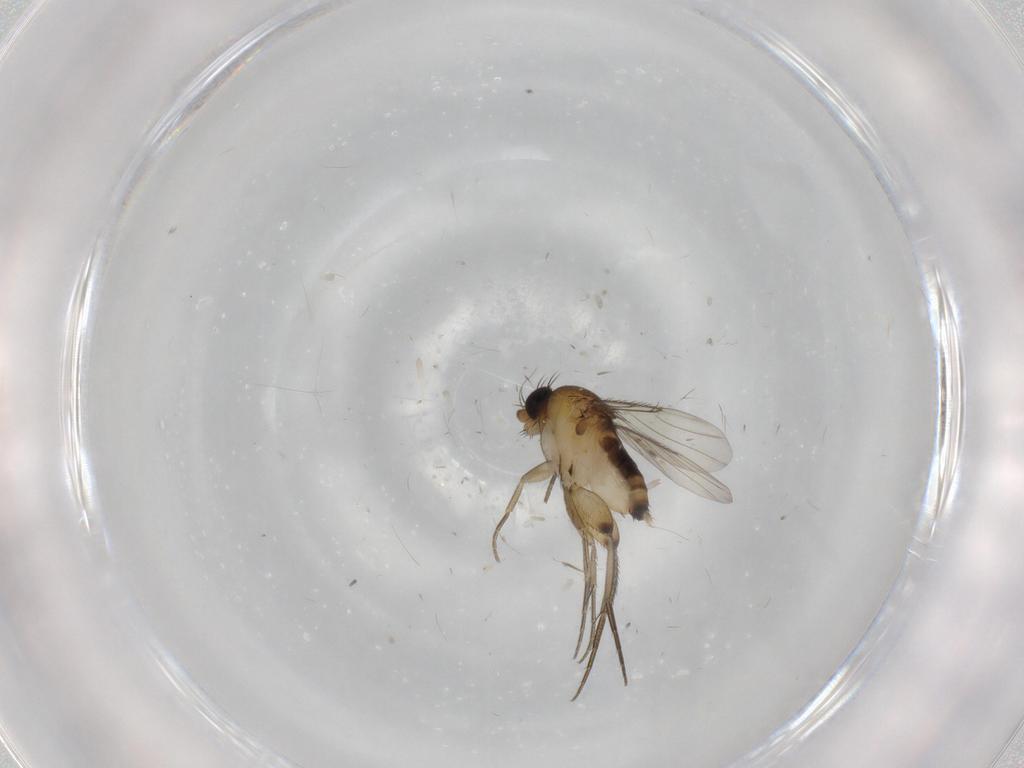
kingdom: Animalia
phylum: Arthropoda
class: Insecta
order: Diptera
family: Phoridae
